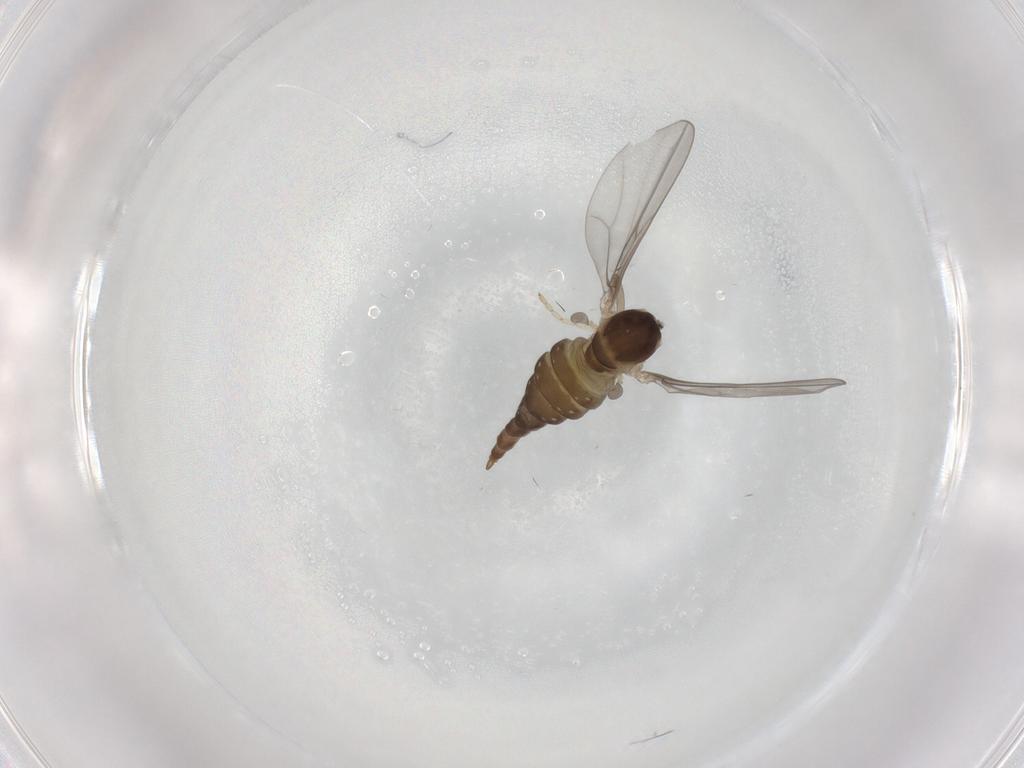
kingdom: Animalia
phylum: Arthropoda
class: Insecta
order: Diptera
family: Cecidomyiidae
